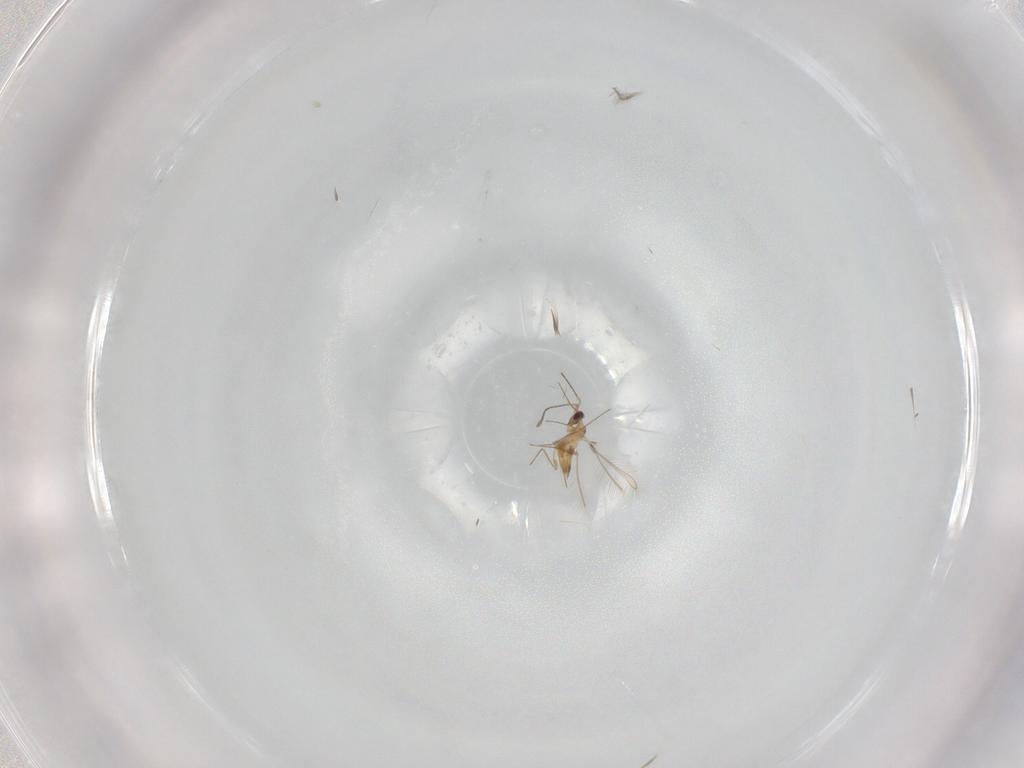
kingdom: Animalia
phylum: Arthropoda
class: Insecta
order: Hymenoptera
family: Mymaridae
